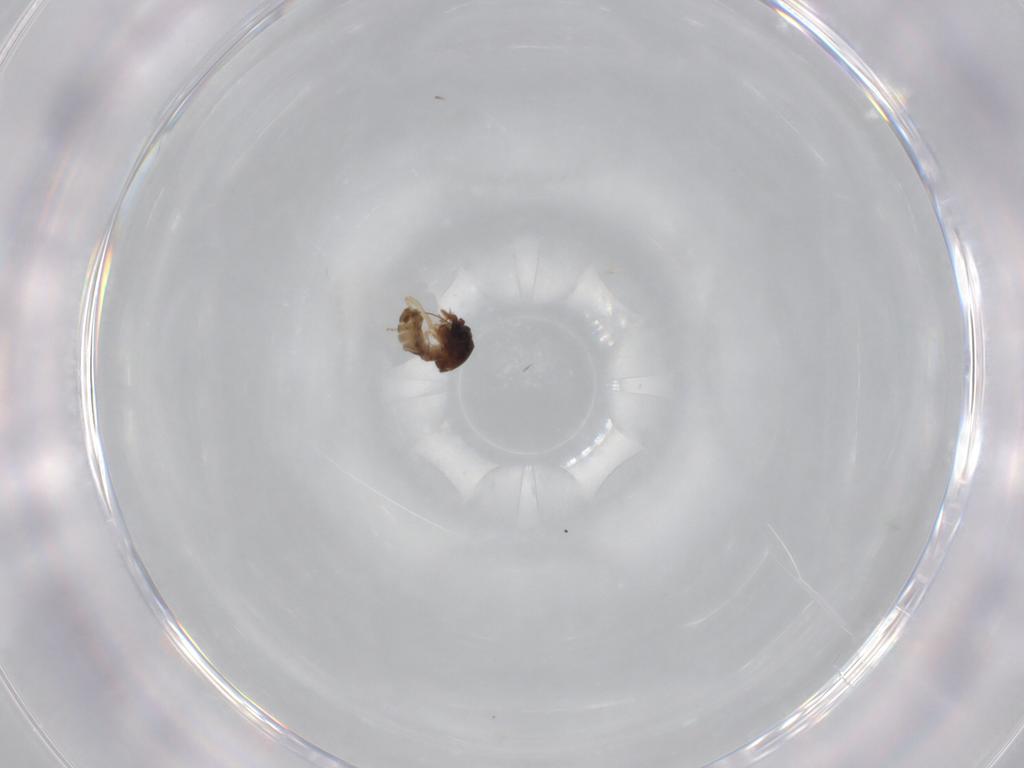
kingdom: Animalia
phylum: Arthropoda
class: Insecta
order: Diptera
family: Ceratopogonidae
